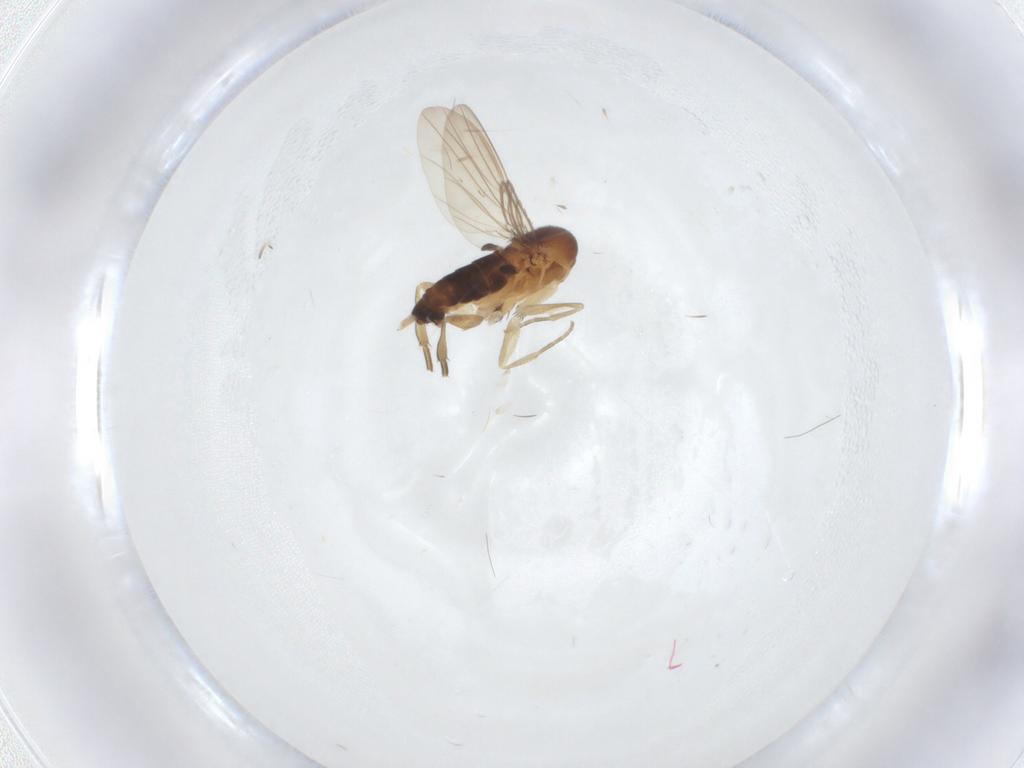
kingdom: Animalia
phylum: Arthropoda
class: Insecta
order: Diptera
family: Phoridae
